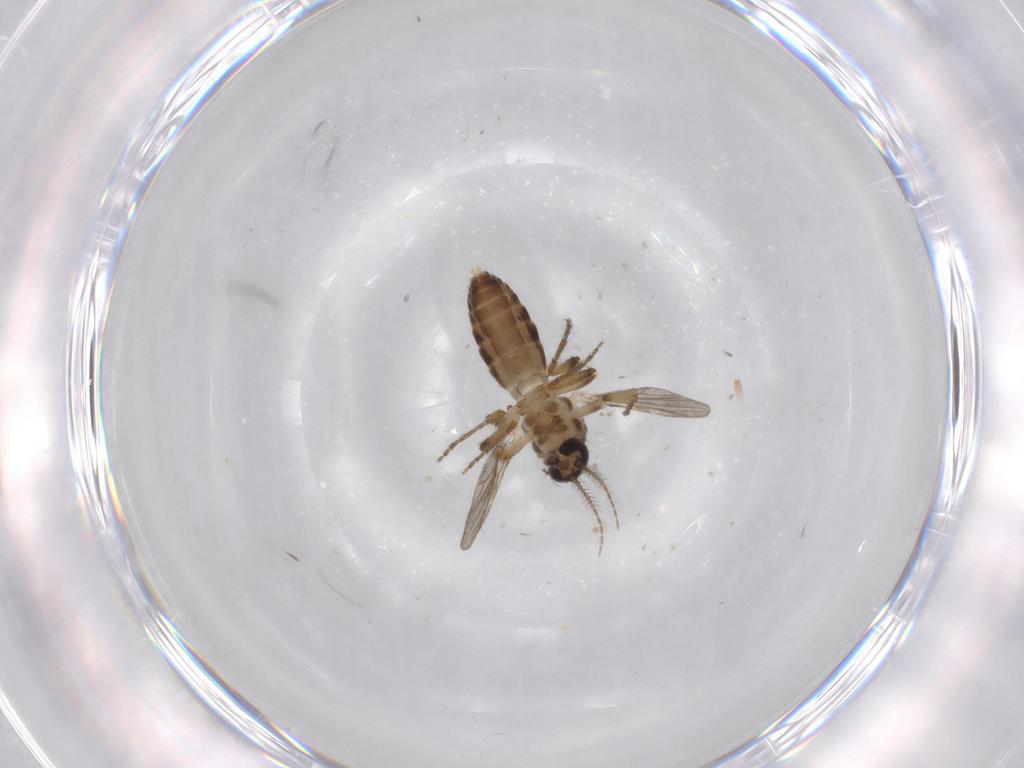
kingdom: Animalia
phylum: Arthropoda
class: Insecta
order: Diptera
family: Ceratopogonidae
